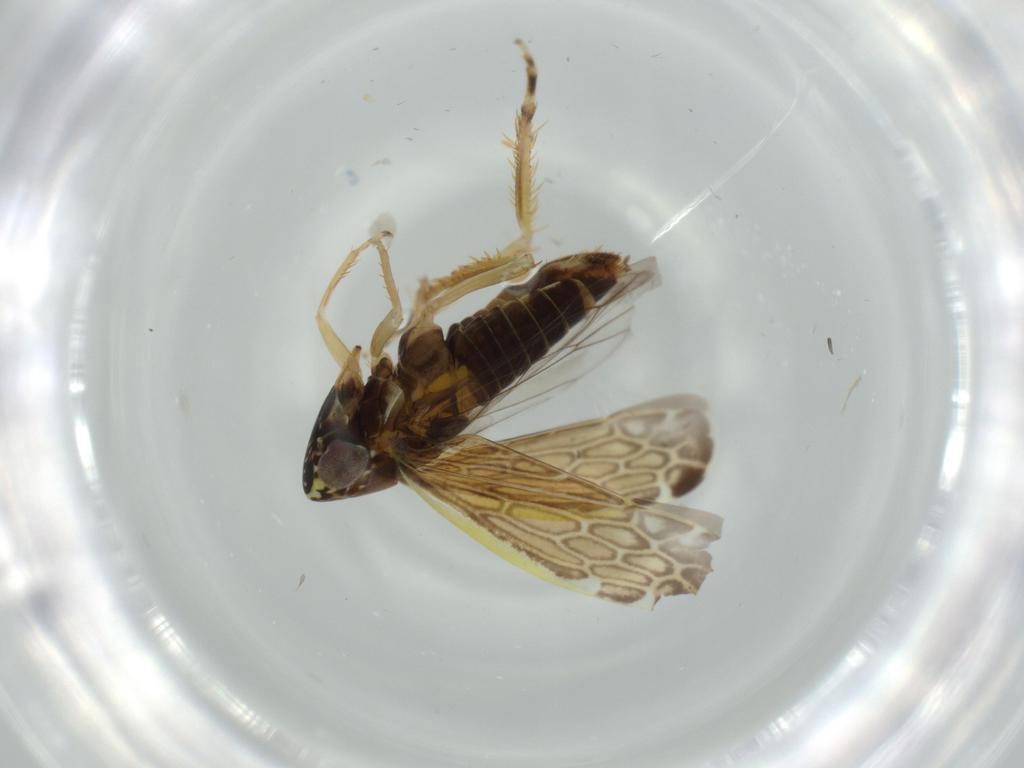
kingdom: Animalia
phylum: Arthropoda
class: Insecta
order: Hemiptera
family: Cicadellidae
